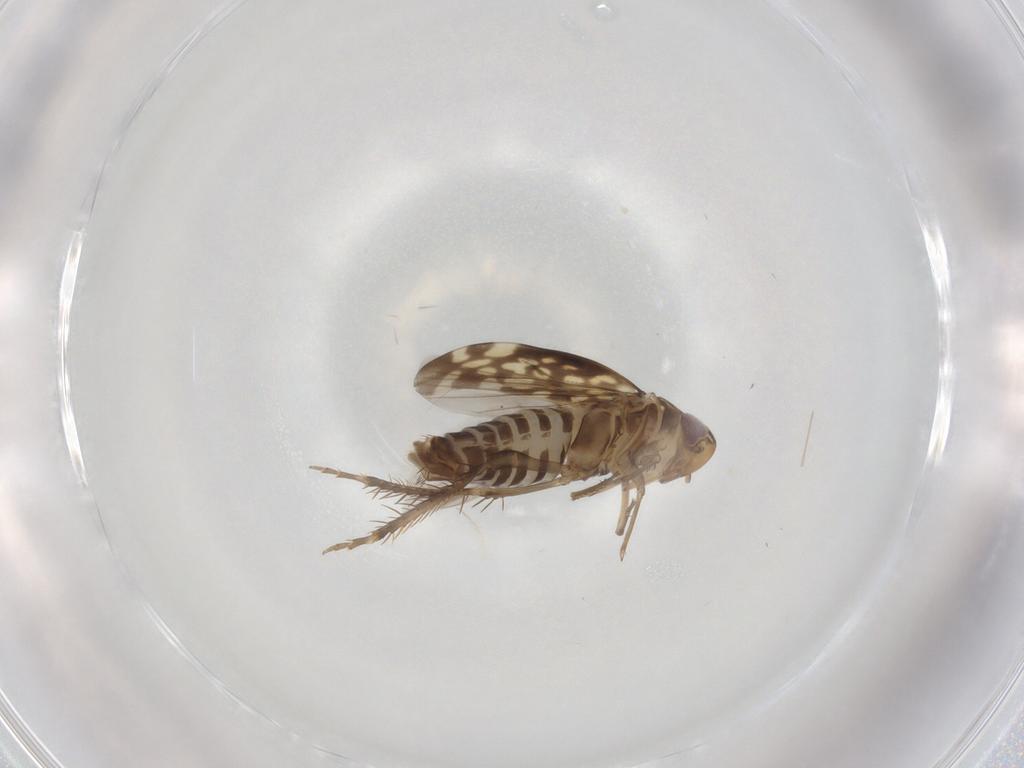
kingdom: Animalia
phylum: Arthropoda
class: Insecta
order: Hemiptera
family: Cicadellidae
